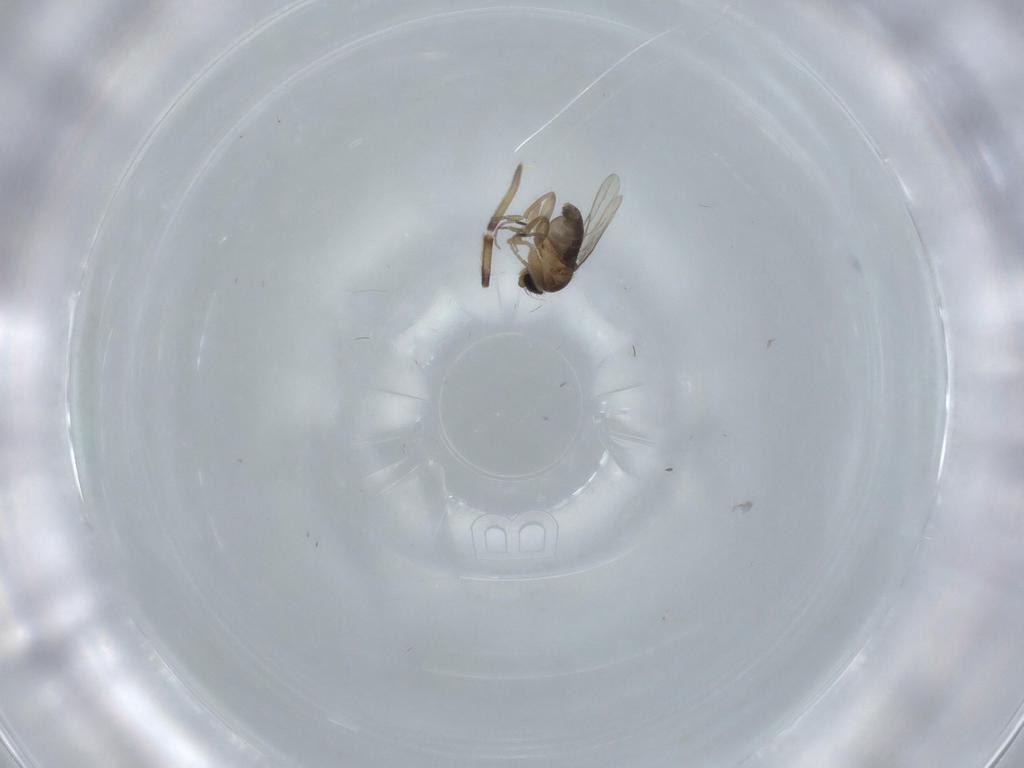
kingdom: Animalia
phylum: Arthropoda
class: Insecta
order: Diptera
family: Phoridae
